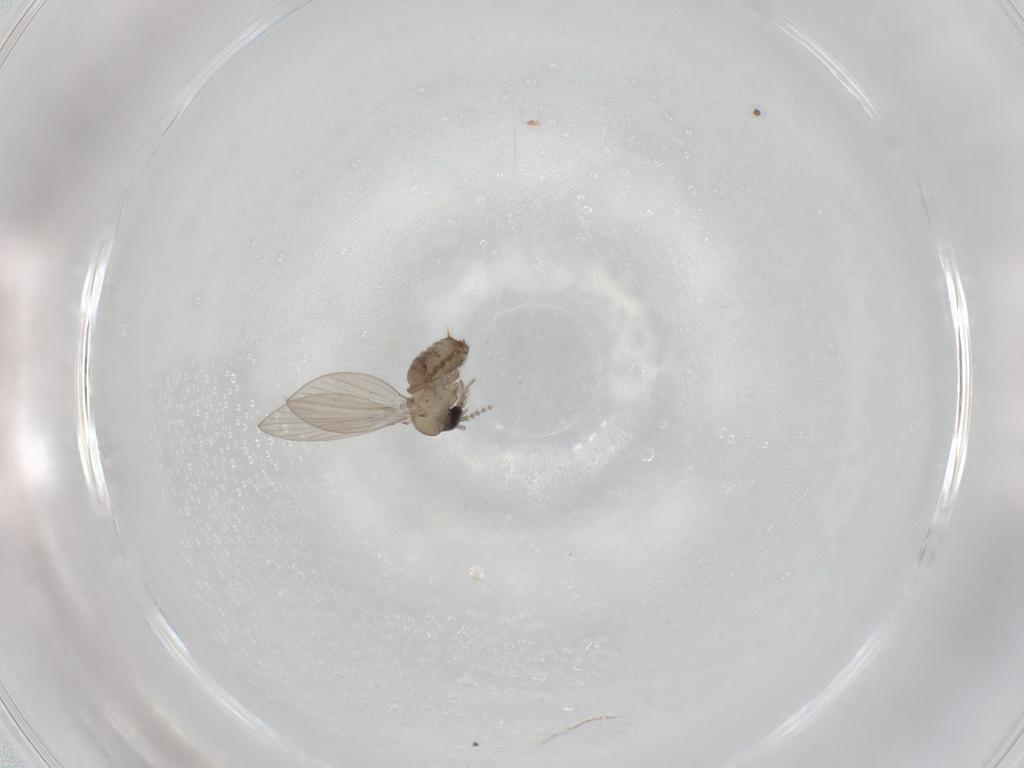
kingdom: Animalia
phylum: Arthropoda
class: Insecta
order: Diptera
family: Psychodidae
